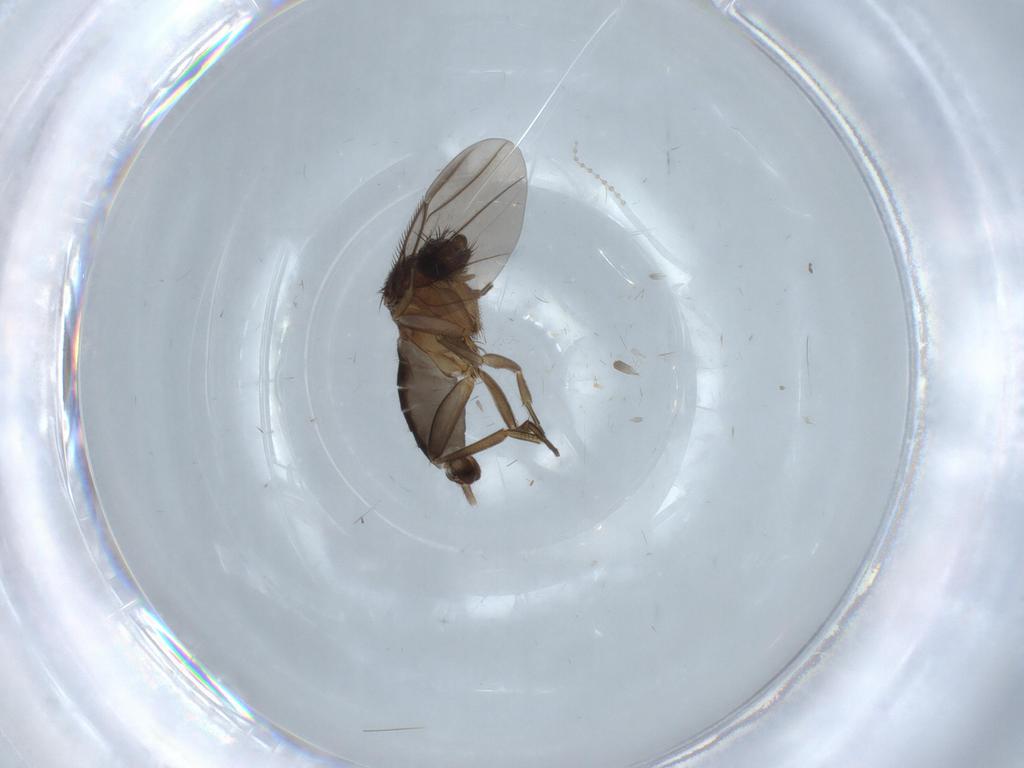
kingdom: Animalia
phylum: Arthropoda
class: Insecta
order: Diptera
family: Cecidomyiidae
